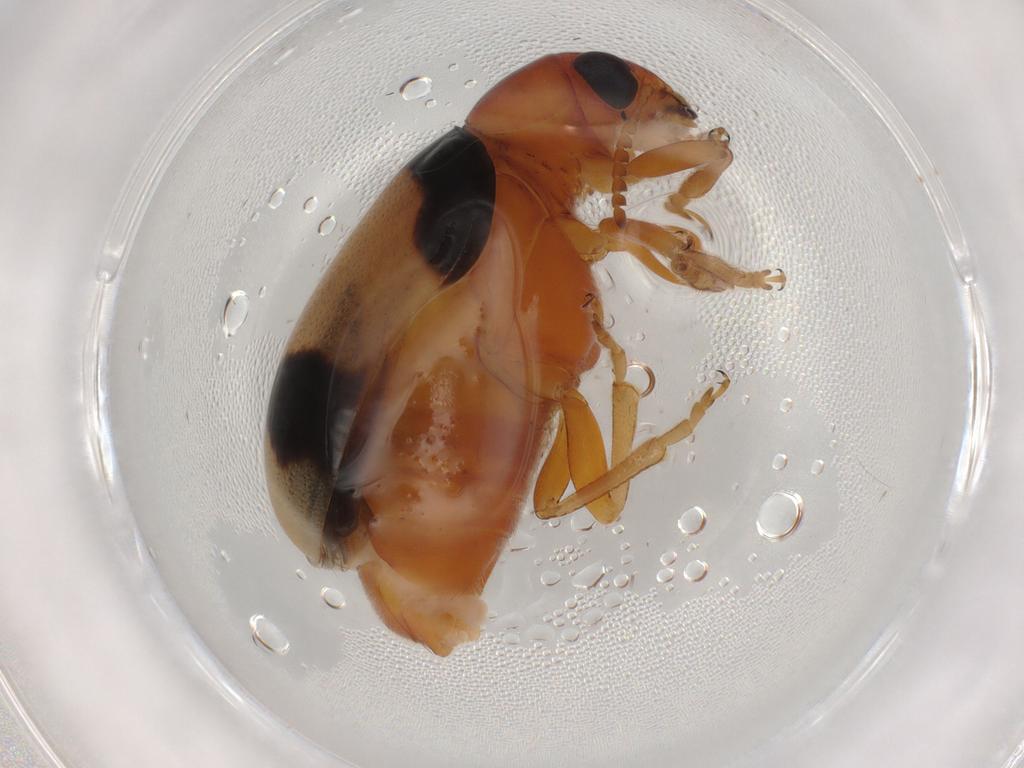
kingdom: Animalia
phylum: Arthropoda
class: Insecta
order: Coleoptera
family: Chrysomelidae
